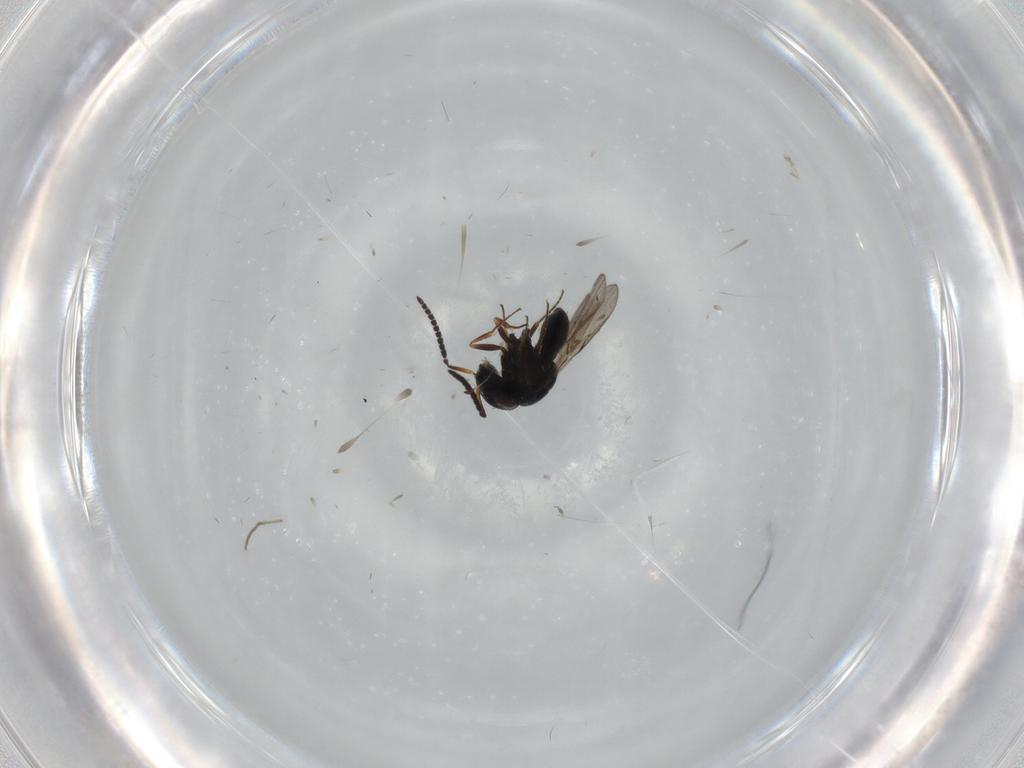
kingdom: Animalia
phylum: Arthropoda
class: Insecta
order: Hymenoptera
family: Scelionidae
